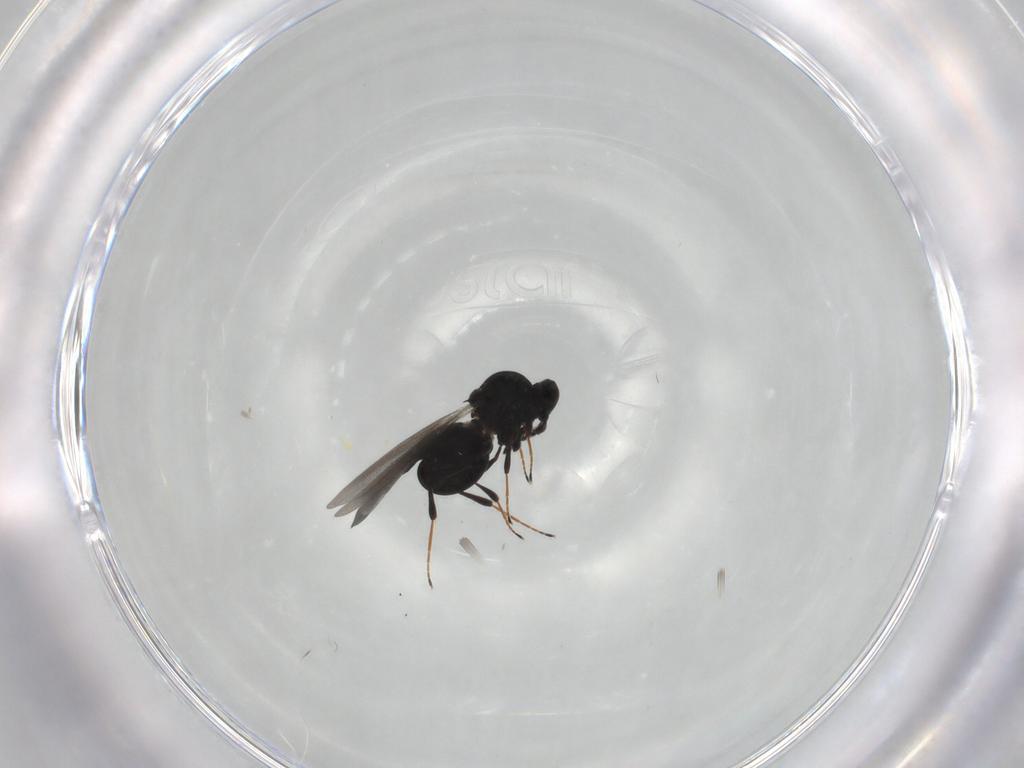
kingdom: Animalia
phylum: Arthropoda
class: Insecta
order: Hymenoptera
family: Platygastridae
